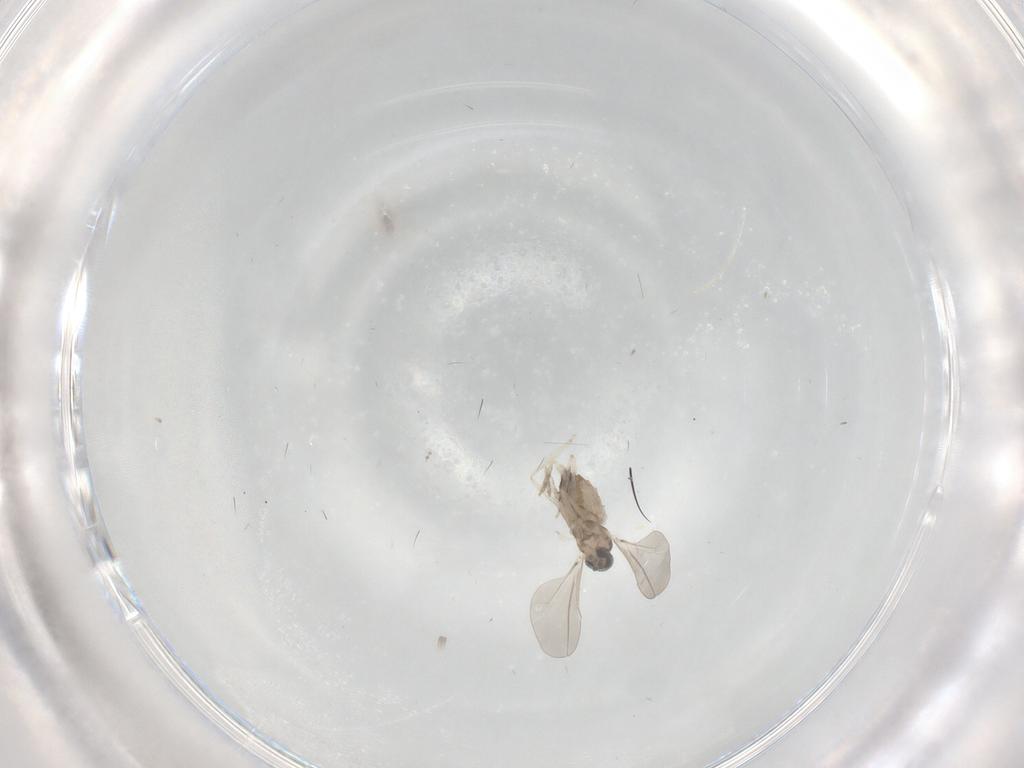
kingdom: Animalia
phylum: Arthropoda
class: Insecta
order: Diptera
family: Cecidomyiidae
